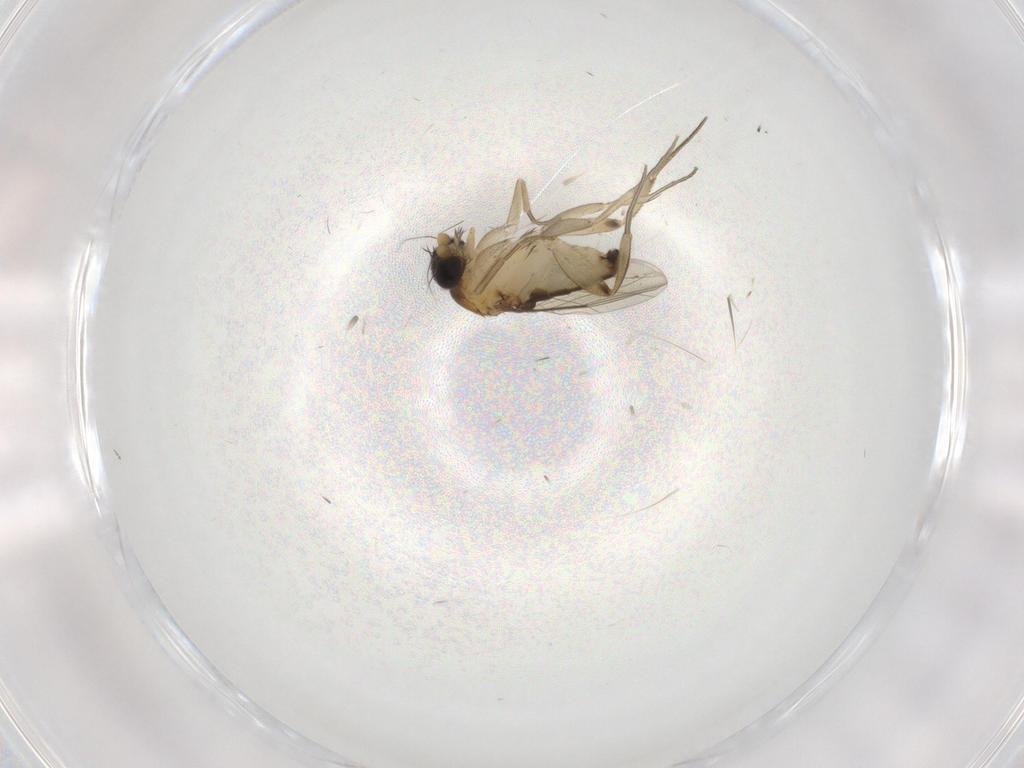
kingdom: Animalia
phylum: Arthropoda
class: Insecta
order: Diptera
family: Phoridae
